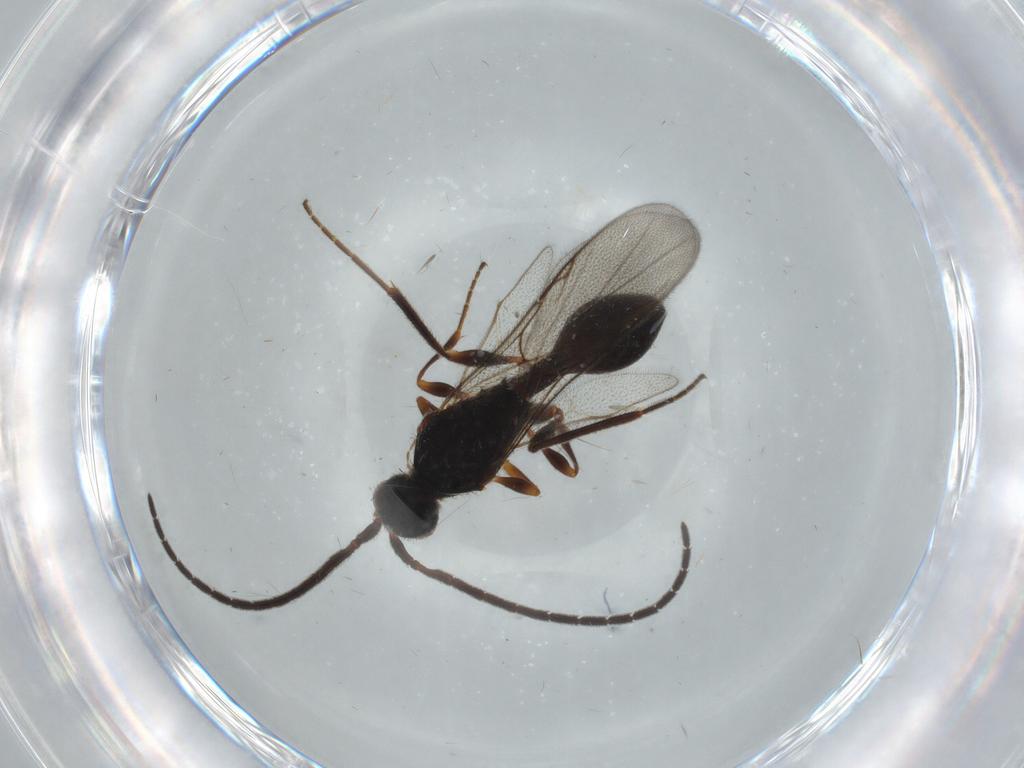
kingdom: Animalia
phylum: Arthropoda
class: Insecta
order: Hymenoptera
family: Diapriidae
